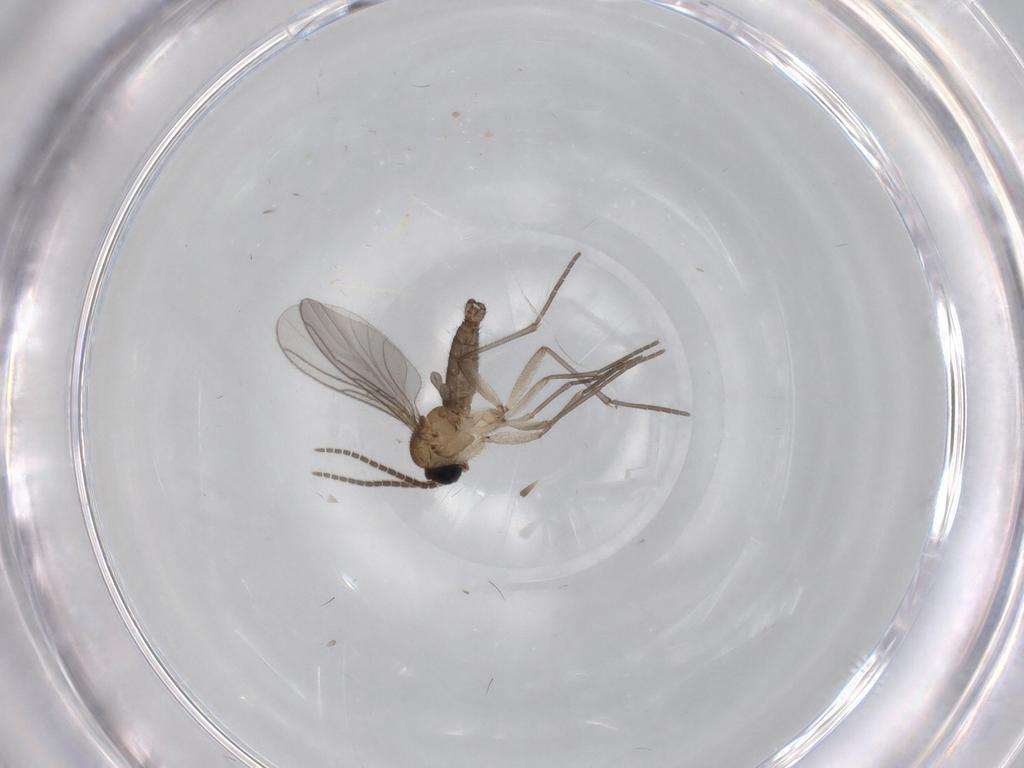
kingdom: Animalia
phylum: Arthropoda
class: Insecta
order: Diptera
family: Sciaridae
